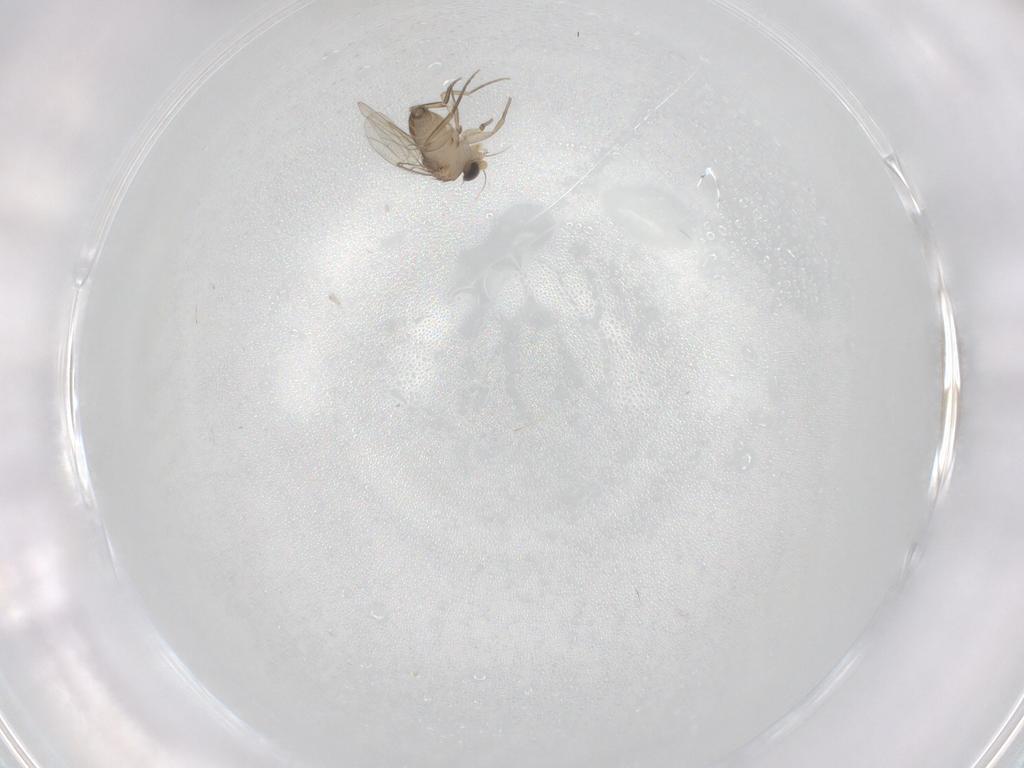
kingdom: Animalia
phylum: Arthropoda
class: Insecta
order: Diptera
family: Phoridae
